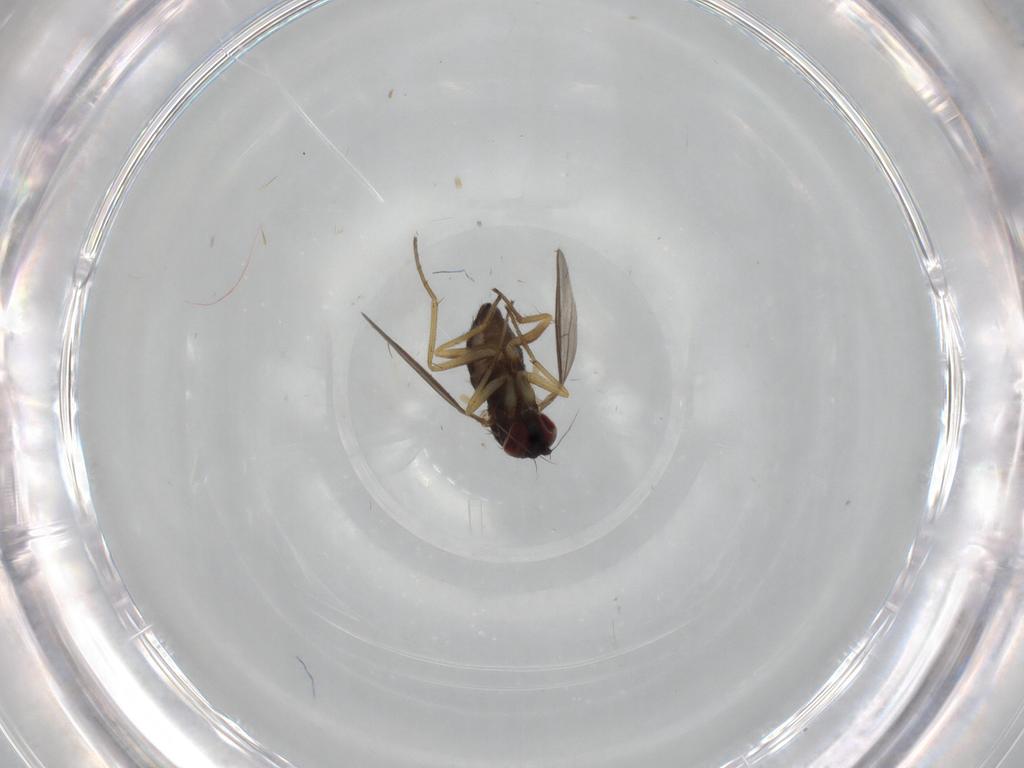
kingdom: Animalia
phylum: Arthropoda
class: Insecta
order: Diptera
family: Dolichopodidae
